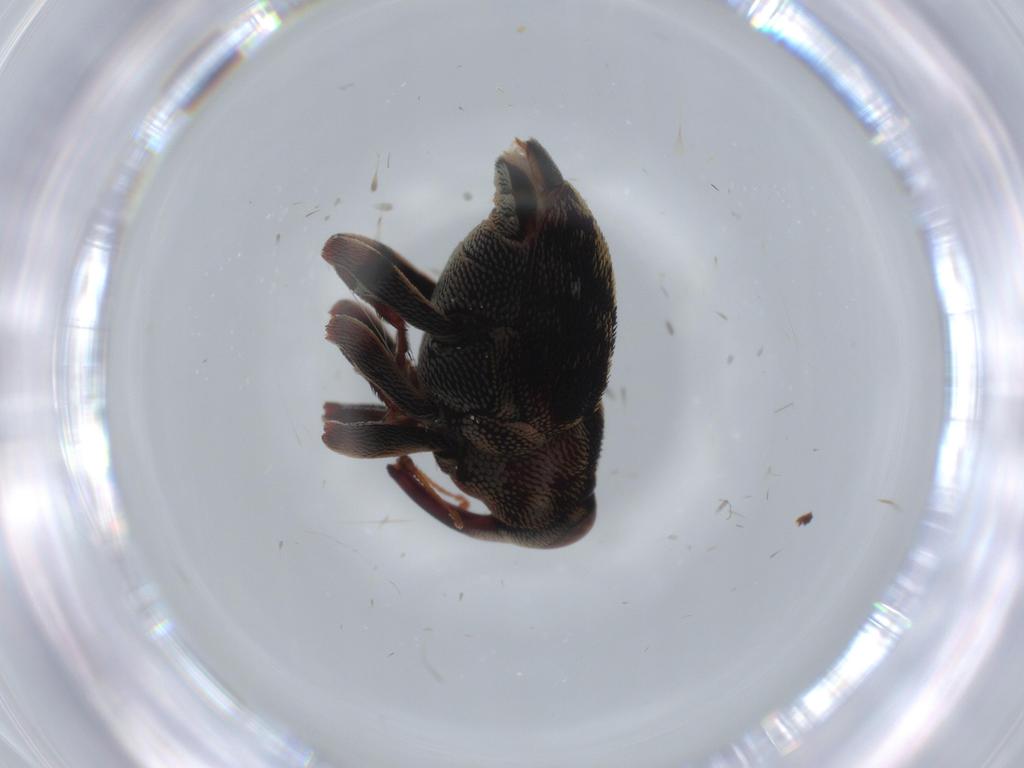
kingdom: Animalia
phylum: Arthropoda
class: Insecta
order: Coleoptera
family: Curculionidae
